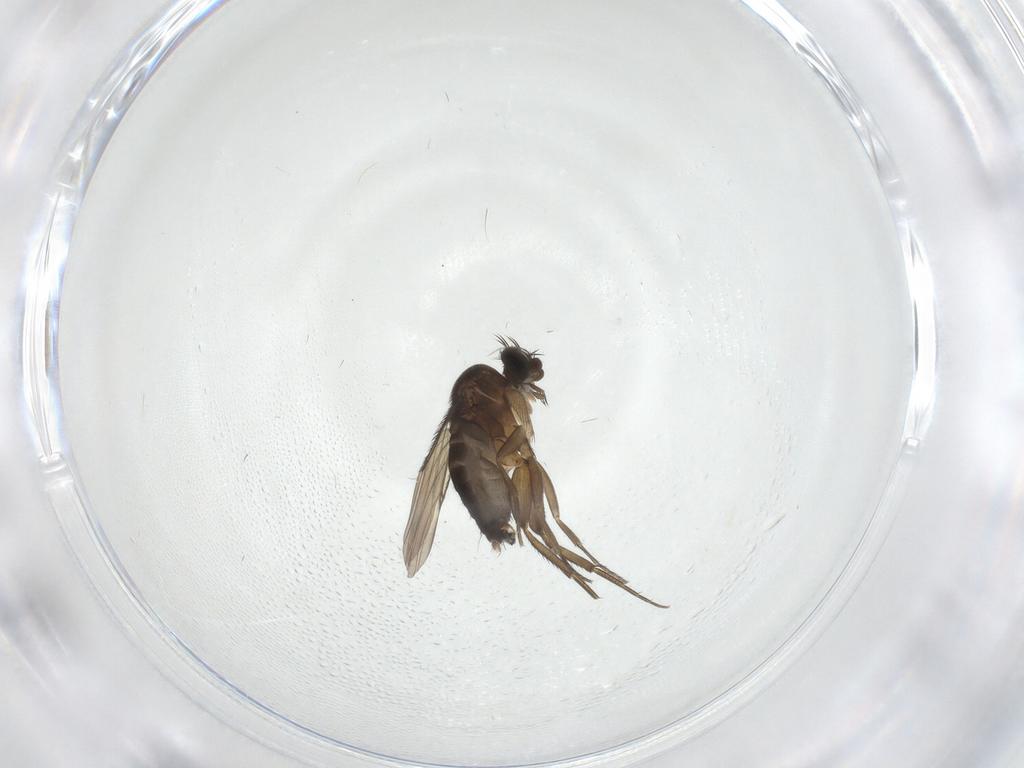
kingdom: Animalia
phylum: Arthropoda
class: Insecta
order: Diptera
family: Phoridae
